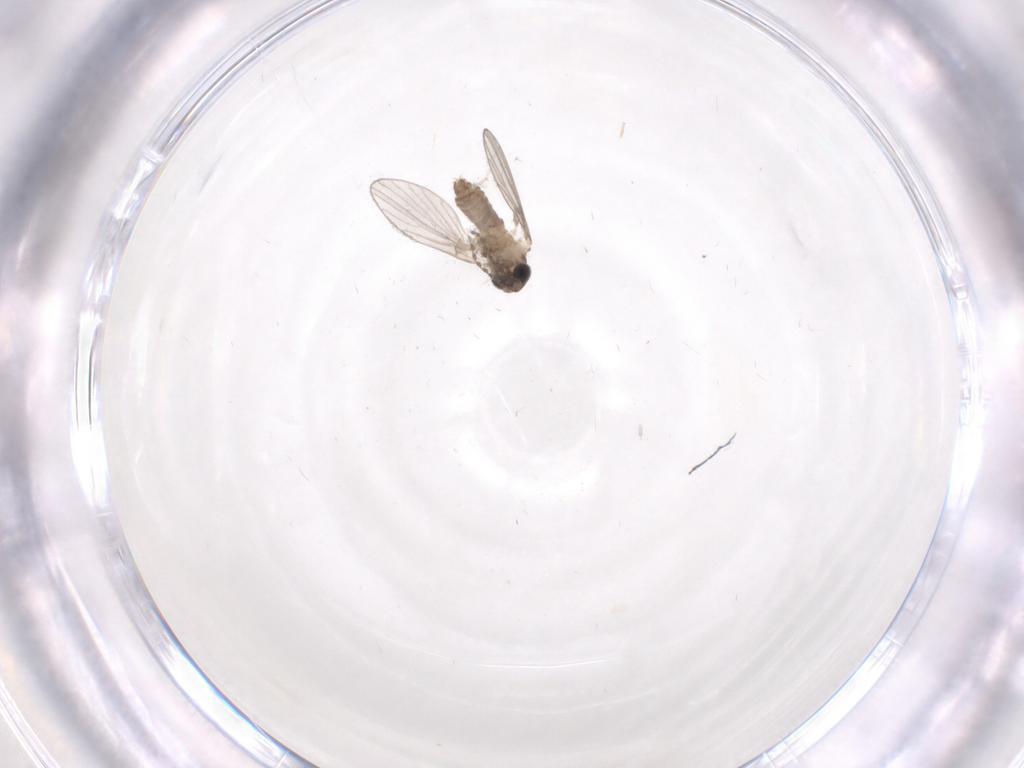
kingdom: Animalia
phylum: Arthropoda
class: Insecta
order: Diptera
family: Psychodidae
